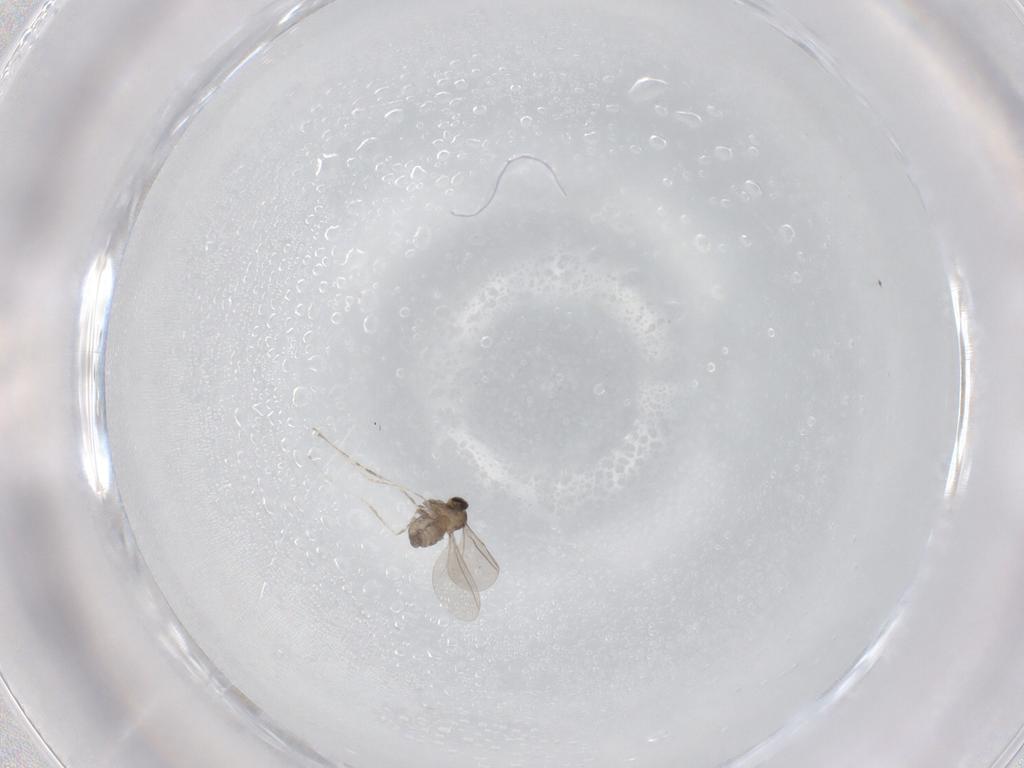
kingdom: Animalia
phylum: Arthropoda
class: Insecta
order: Diptera
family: Cecidomyiidae
